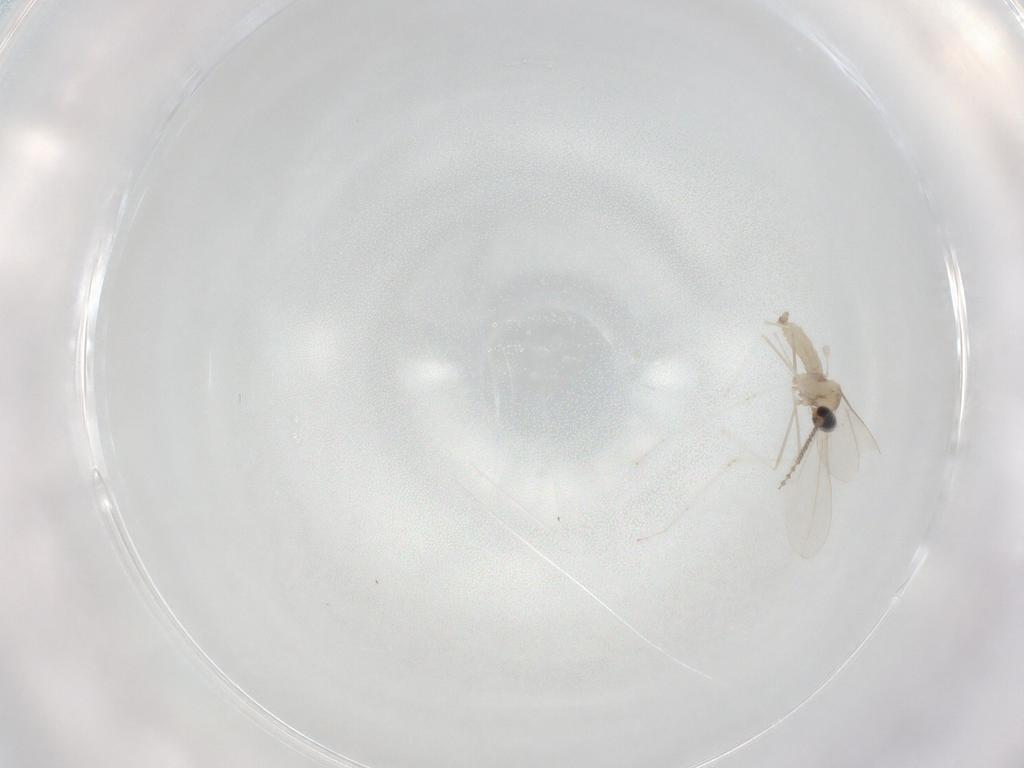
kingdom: Animalia
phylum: Arthropoda
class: Insecta
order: Diptera
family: Cecidomyiidae
